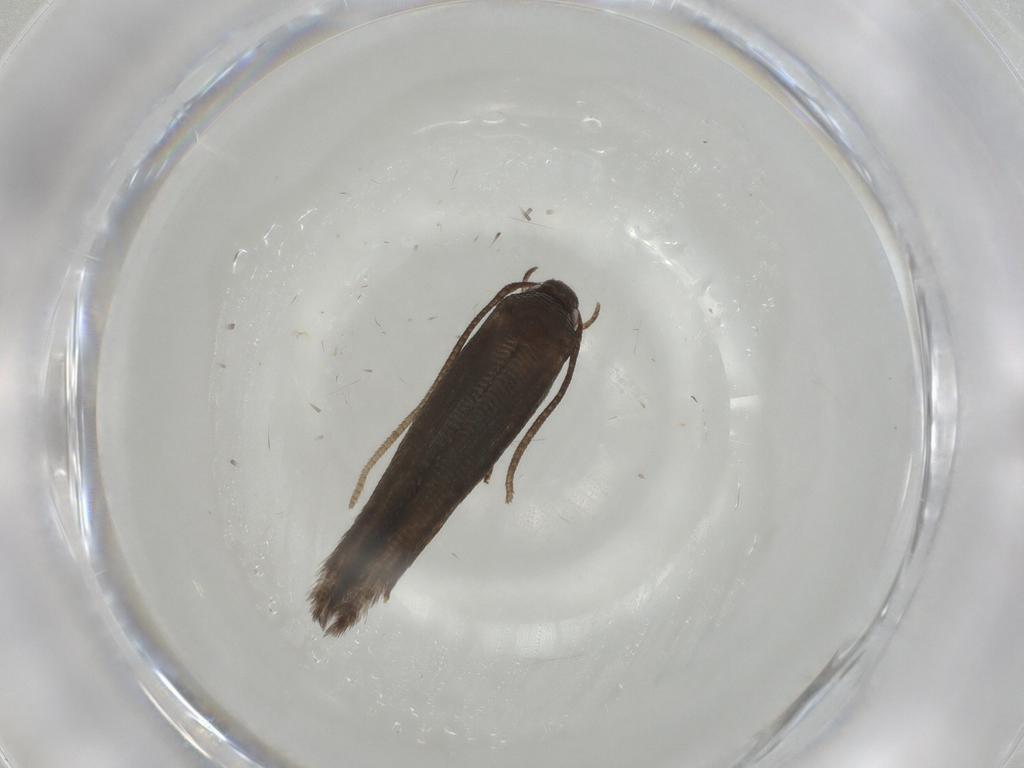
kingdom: Animalia
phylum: Arthropoda
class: Insecta
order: Lepidoptera
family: Cosmopterigidae
